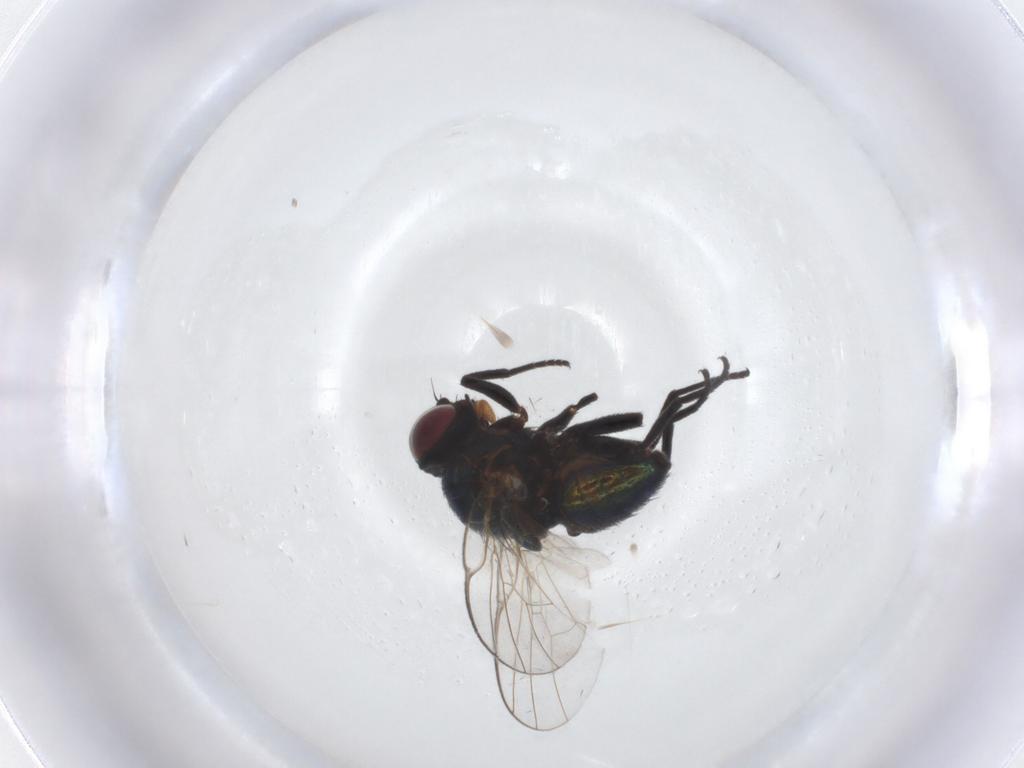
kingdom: Animalia
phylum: Arthropoda
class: Insecta
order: Diptera
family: Agromyzidae
